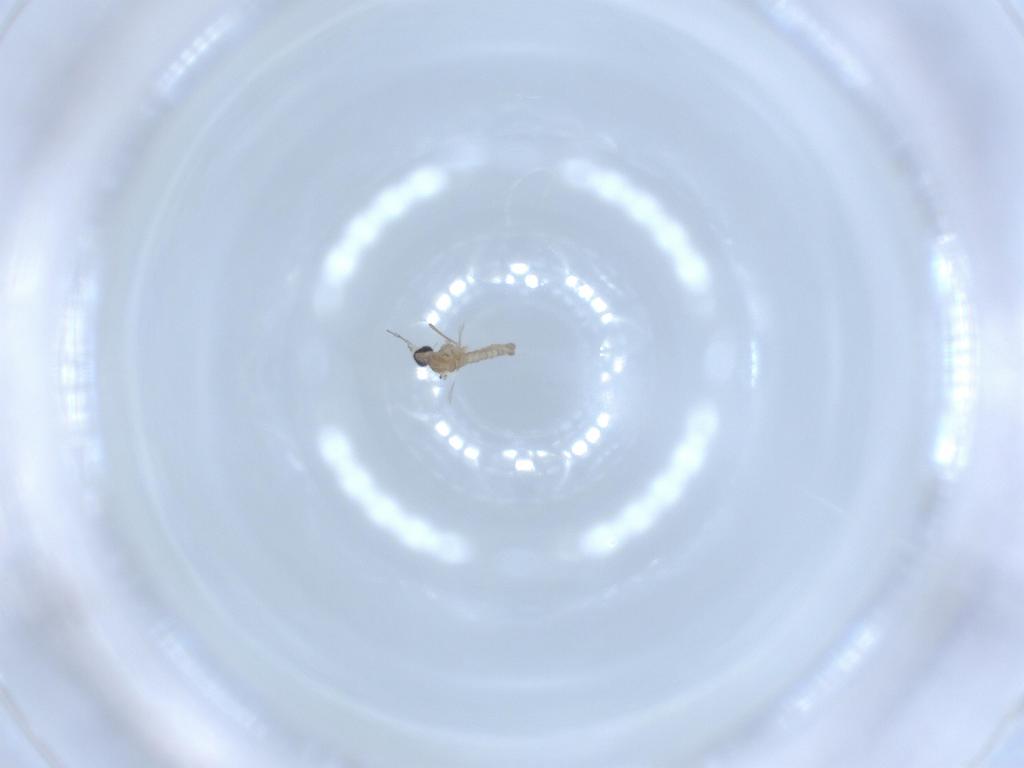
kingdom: Animalia
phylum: Arthropoda
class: Insecta
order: Diptera
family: Cecidomyiidae
